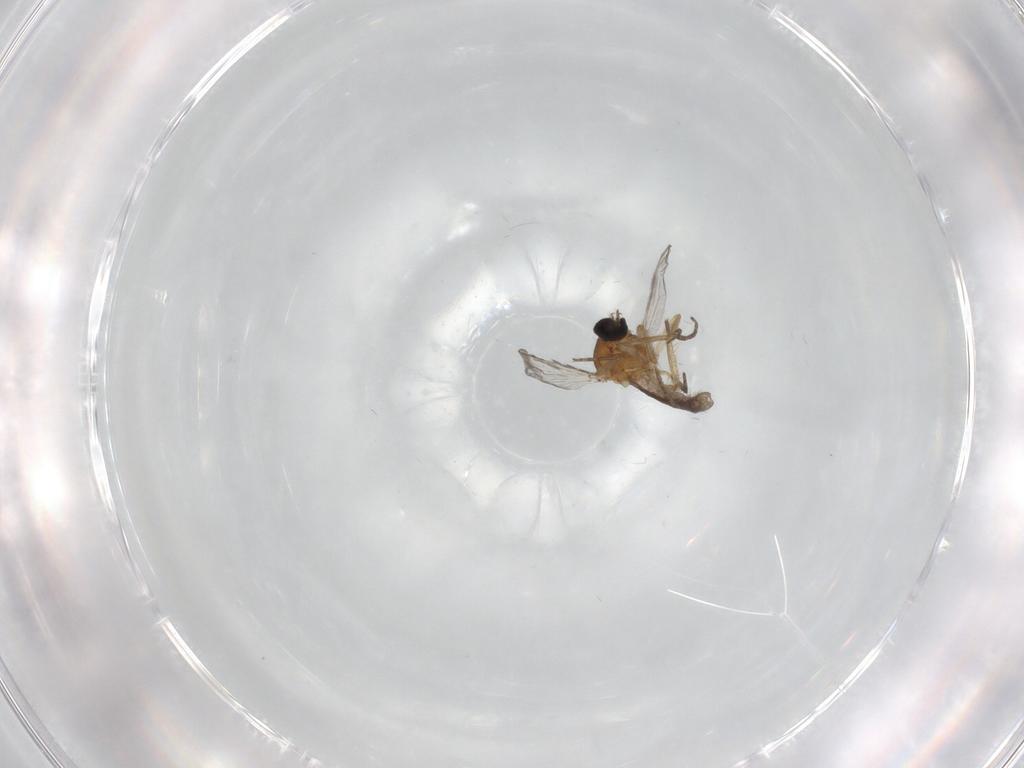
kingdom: Animalia
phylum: Arthropoda
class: Insecta
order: Diptera
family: Ceratopogonidae
